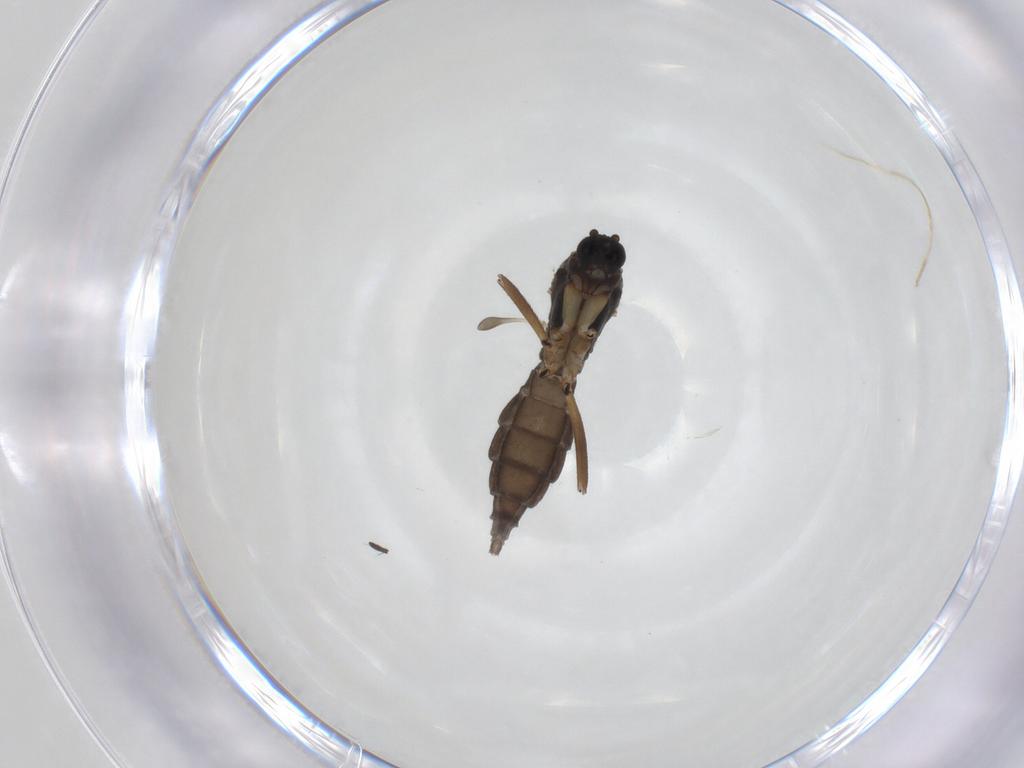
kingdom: Animalia
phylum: Arthropoda
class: Insecta
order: Diptera
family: Sciaridae
